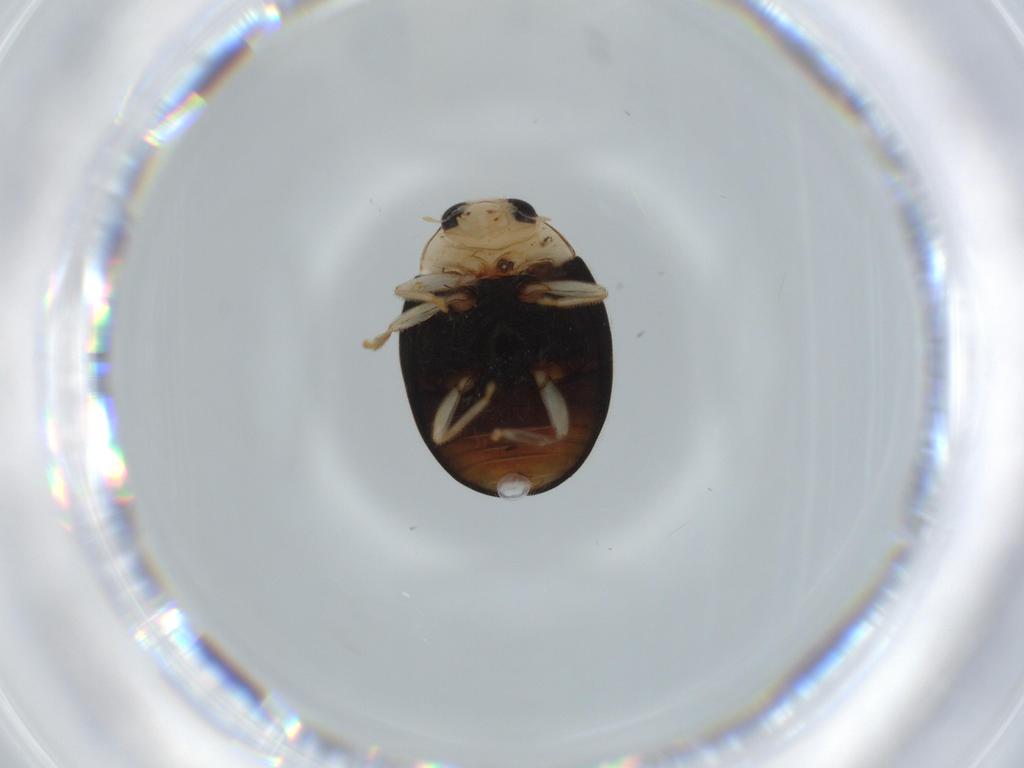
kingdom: Animalia
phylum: Arthropoda
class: Insecta
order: Coleoptera
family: Coccinellidae
